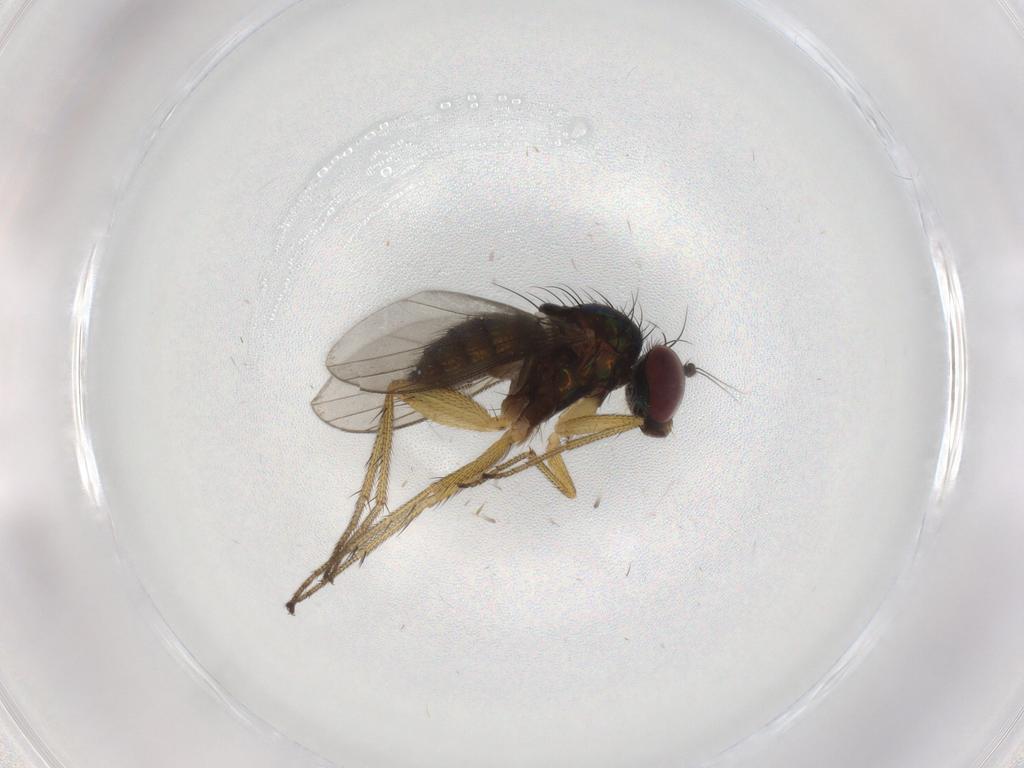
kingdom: Animalia
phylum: Arthropoda
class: Insecta
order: Diptera
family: Dolichopodidae
